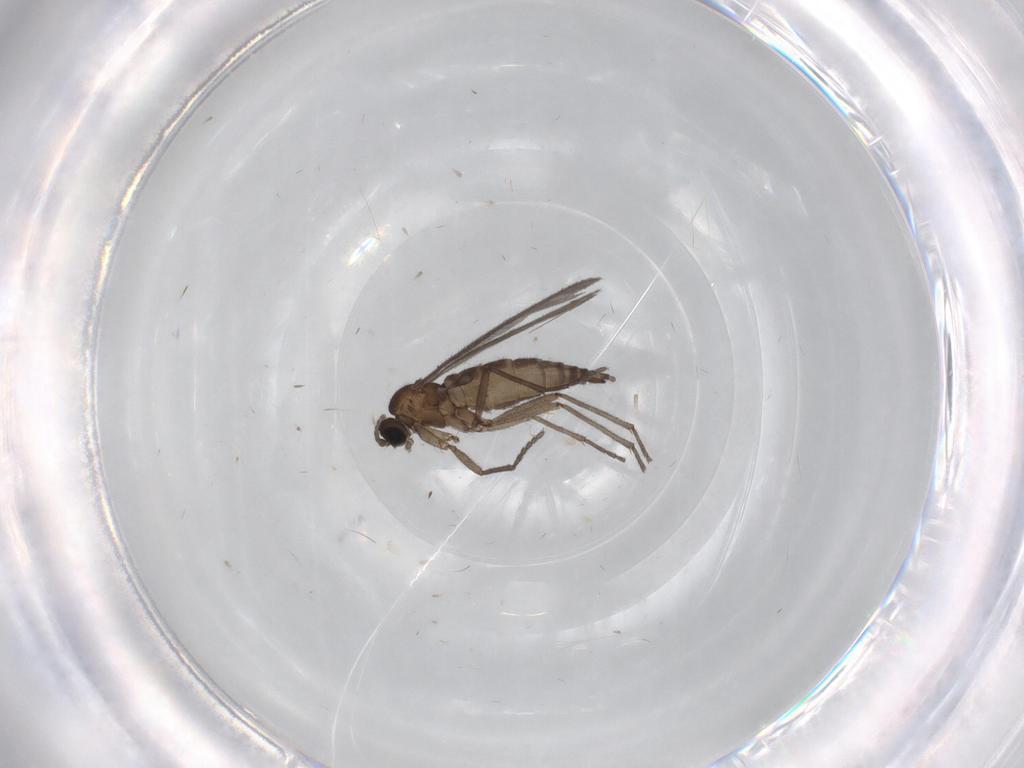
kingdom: Animalia
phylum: Arthropoda
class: Insecta
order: Diptera
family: Sciaridae
